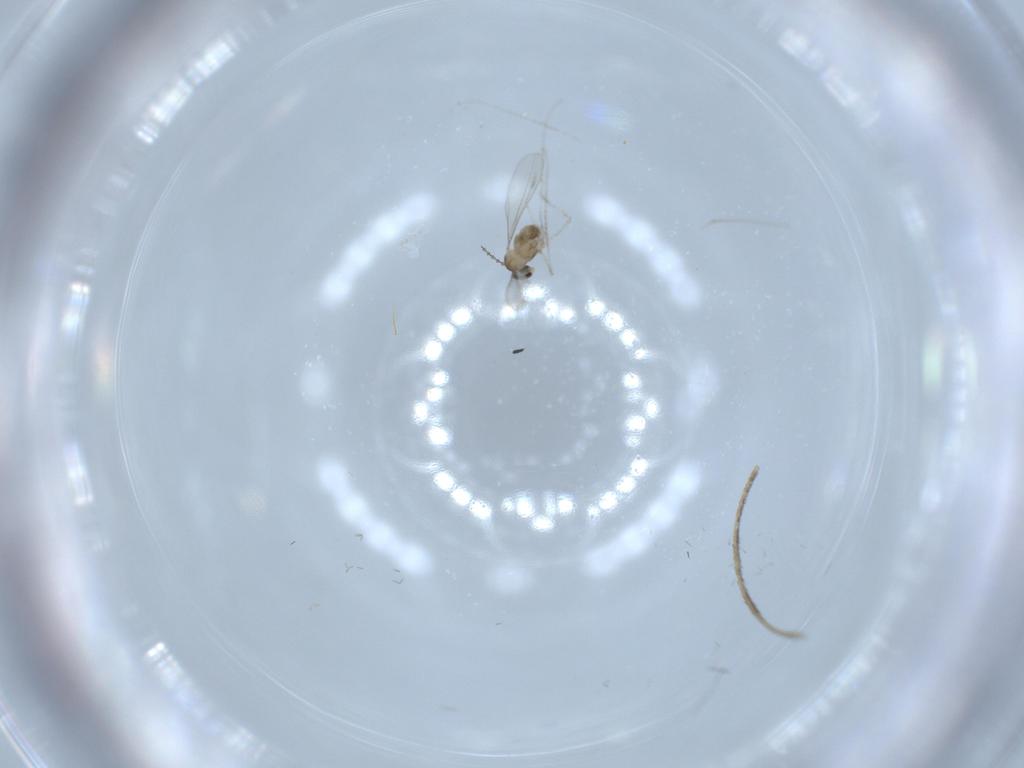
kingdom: Animalia
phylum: Arthropoda
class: Insecta
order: Diptera
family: Cecidomyiidae
